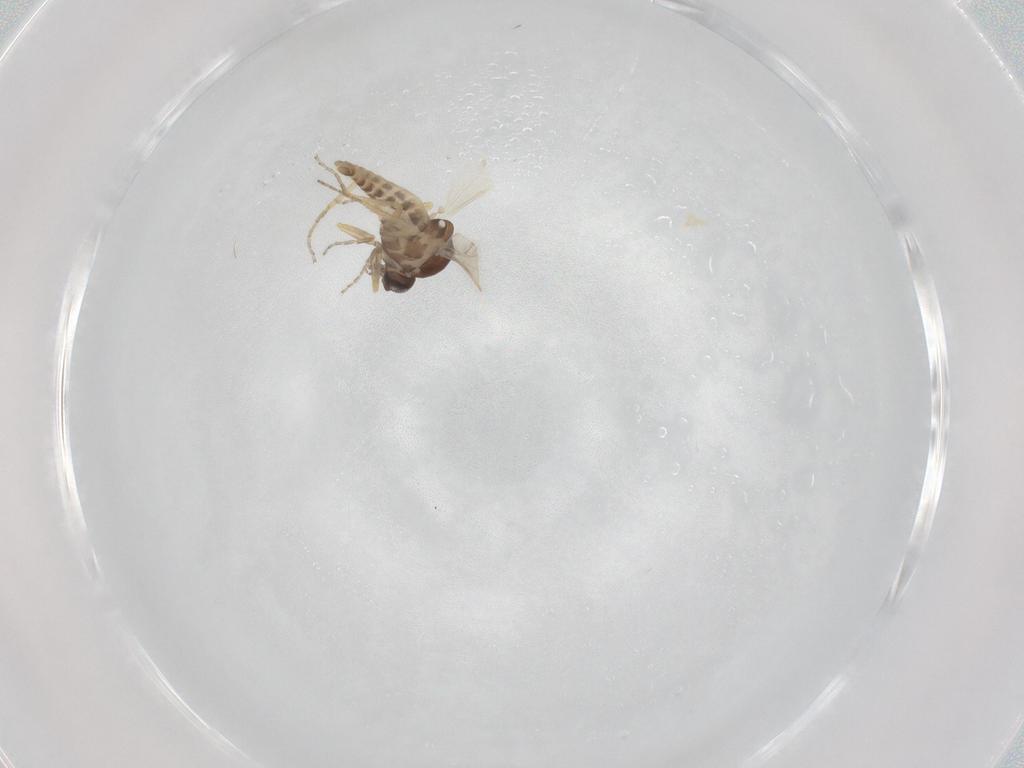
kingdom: Animalia
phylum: Arthropoda
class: Insecta
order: Diptera
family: Ceratopogonidae
